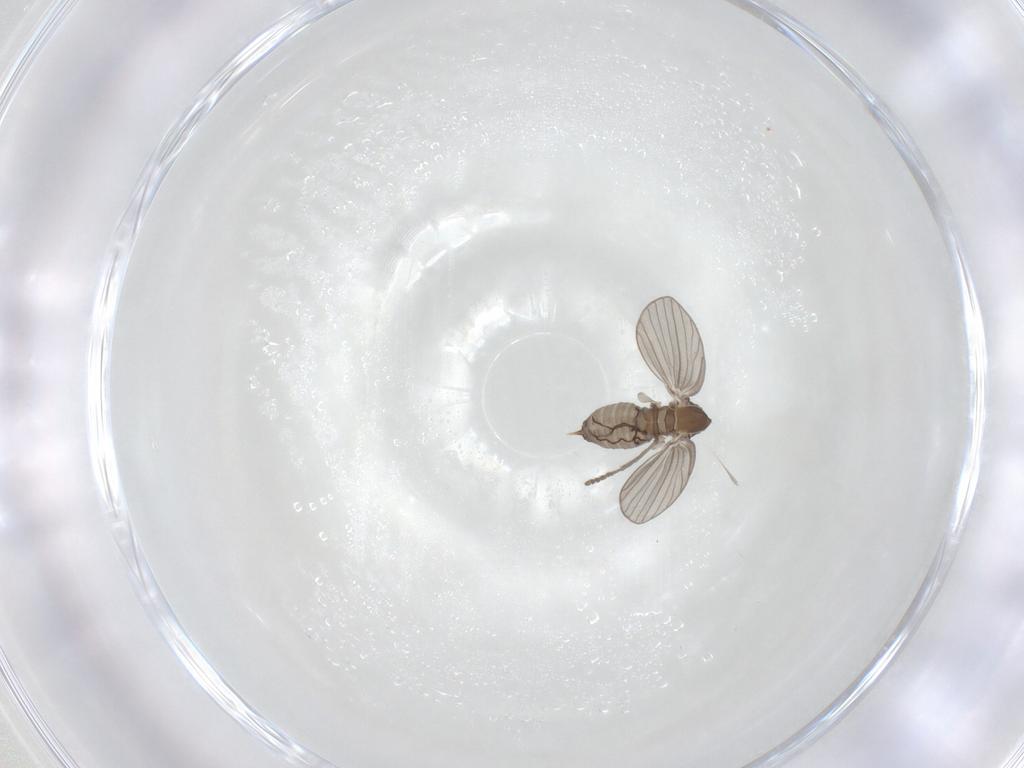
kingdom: Animalia
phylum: Arthropoda
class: Insecta
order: Diptera
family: Psychodidae
